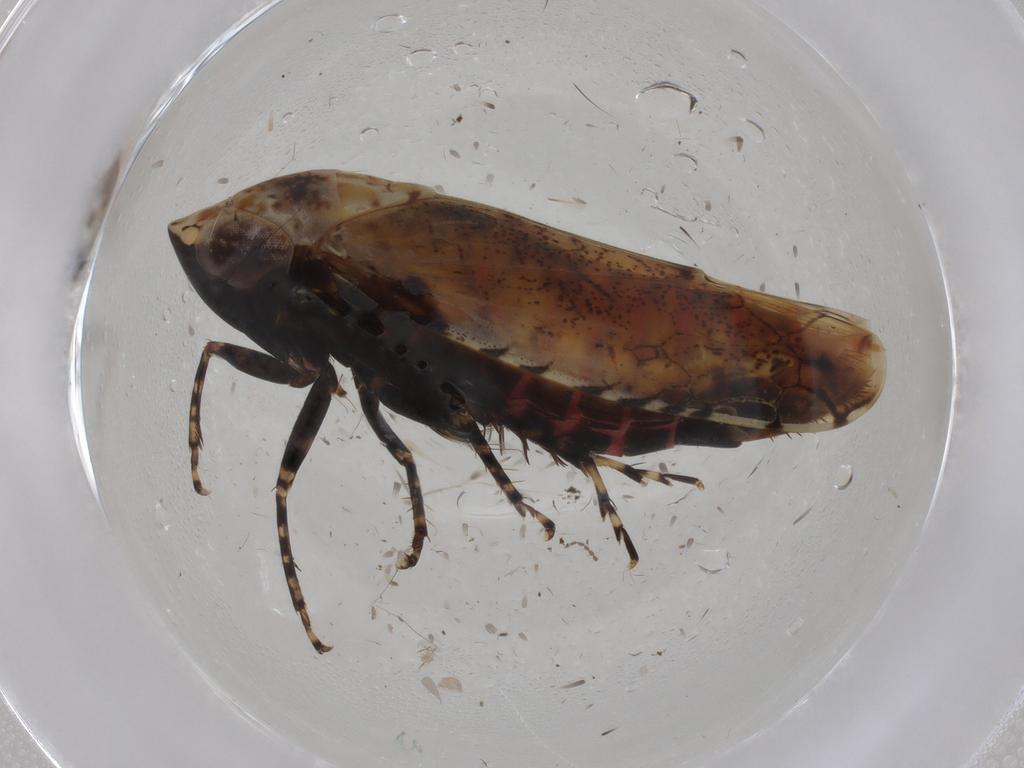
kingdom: Animalia
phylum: Arthropoda
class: Insecta
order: Hemiptera
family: Cicadellidae
